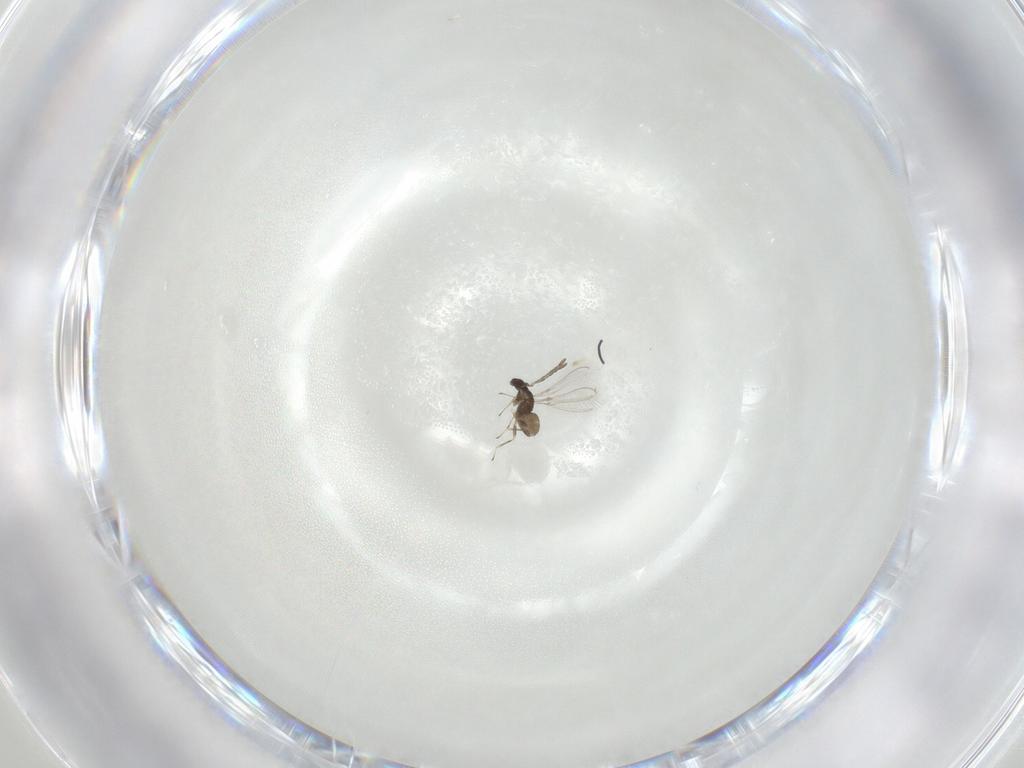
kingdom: Animalia
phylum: Arthropoda
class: Insecta
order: Hymenoptera
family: Mymaridae
